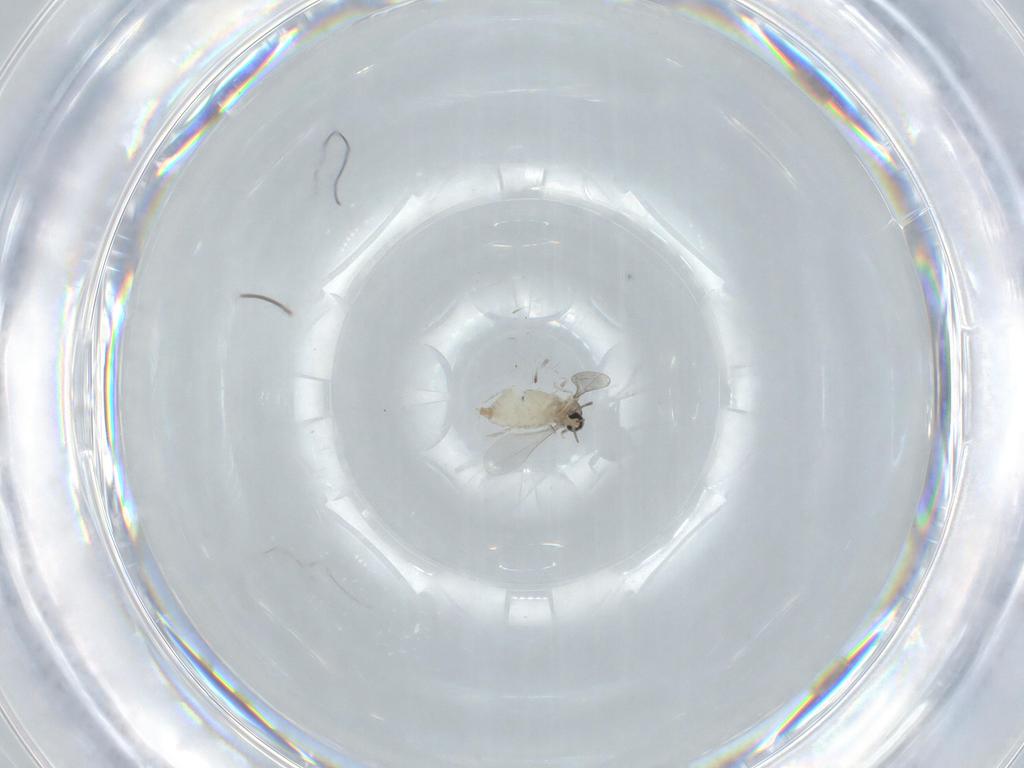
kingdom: Animalia
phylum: Arthropoda
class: Insecta
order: Diptera
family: Cecidomyiidae
